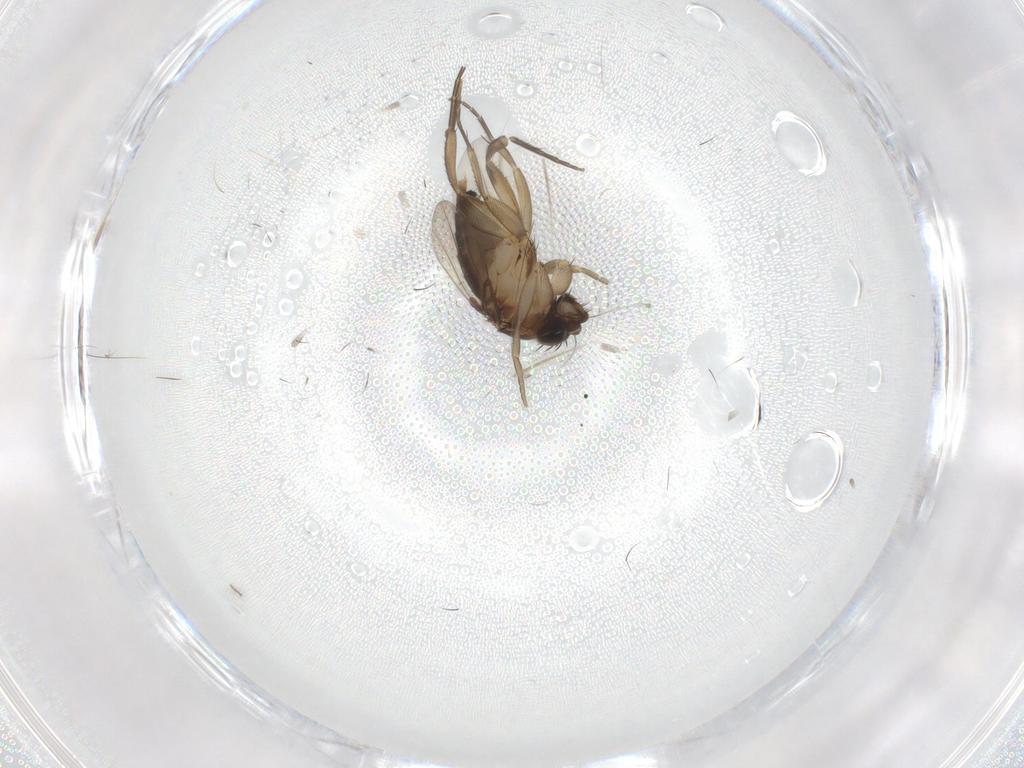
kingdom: Animalia
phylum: Arthropoda
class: Insecta
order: Diptera
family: Phoridae
